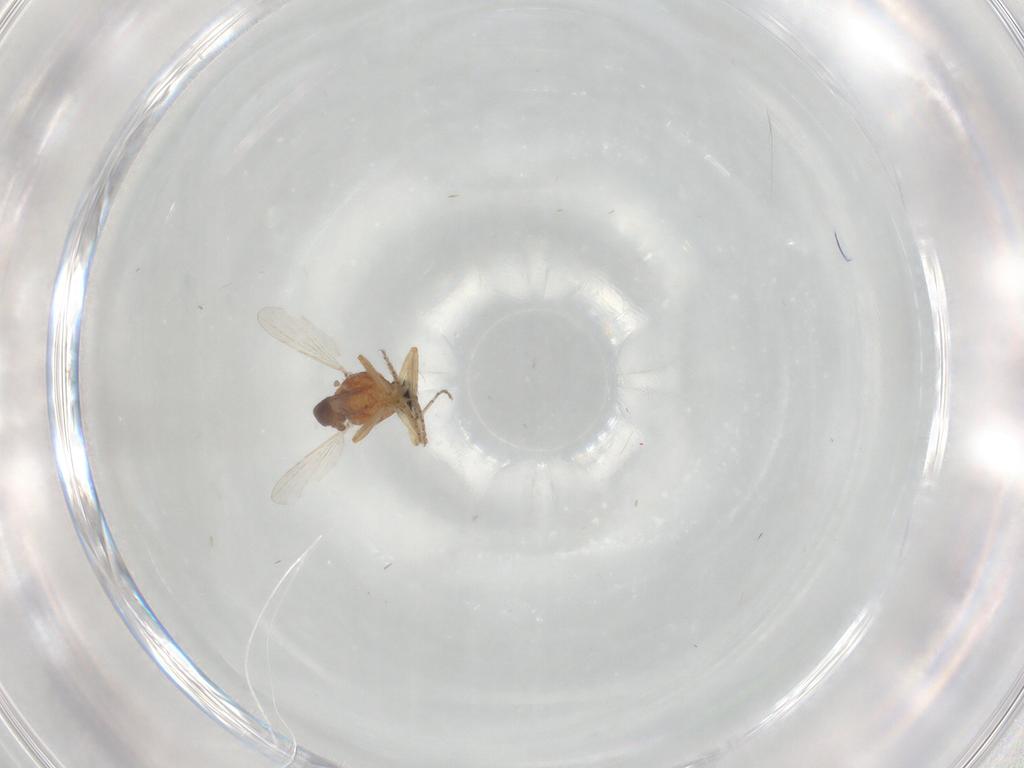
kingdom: Animalia
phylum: Arthropoda
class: Insecta
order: Diptera
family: Ceratopogonidae
